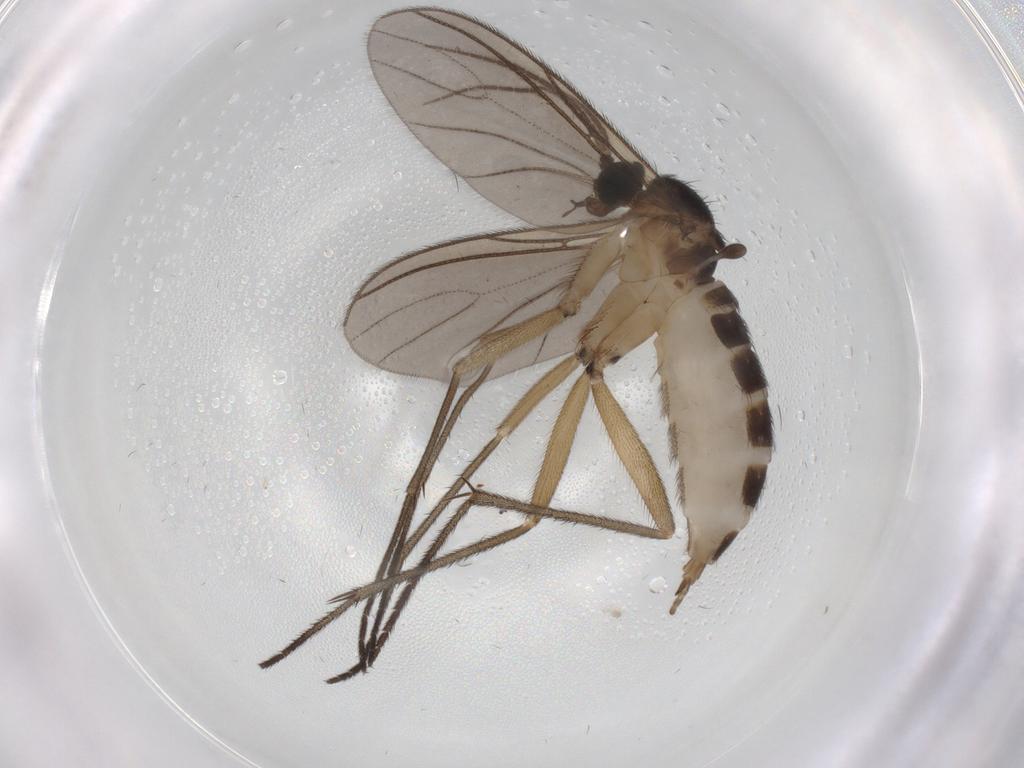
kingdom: Animalia
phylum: Arthropoda
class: Insecta
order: Diptera
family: Sciaridae
